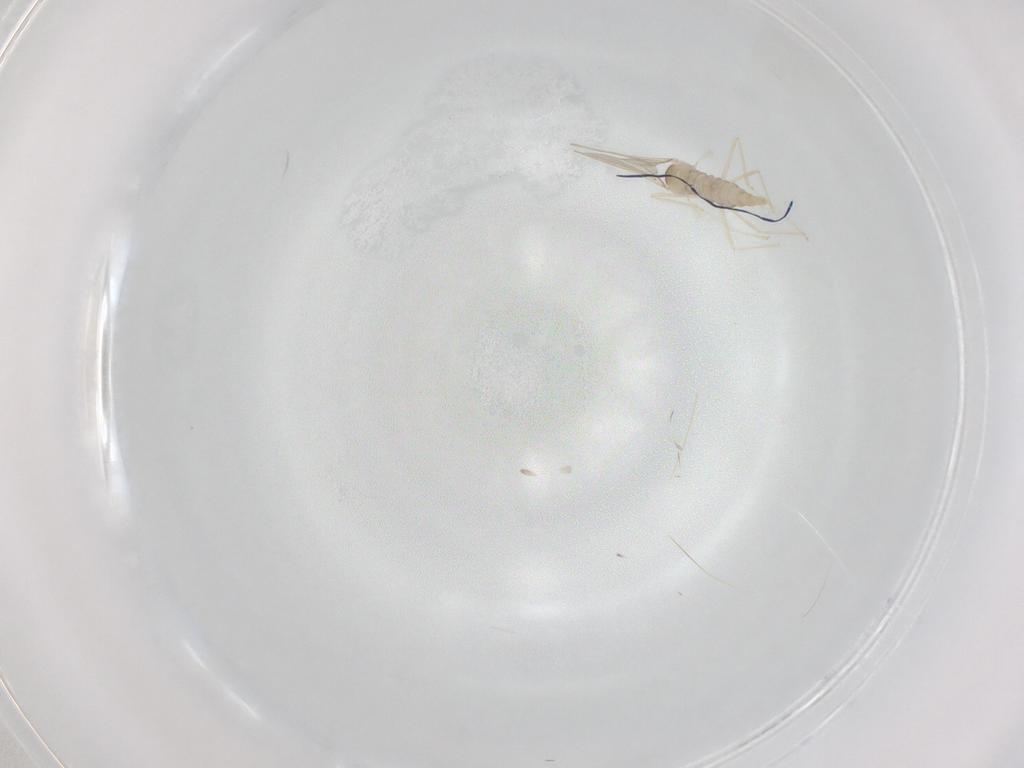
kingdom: Animalia
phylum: Arthropoda
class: Insecta
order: Diptera
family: Cecidomyiidae
